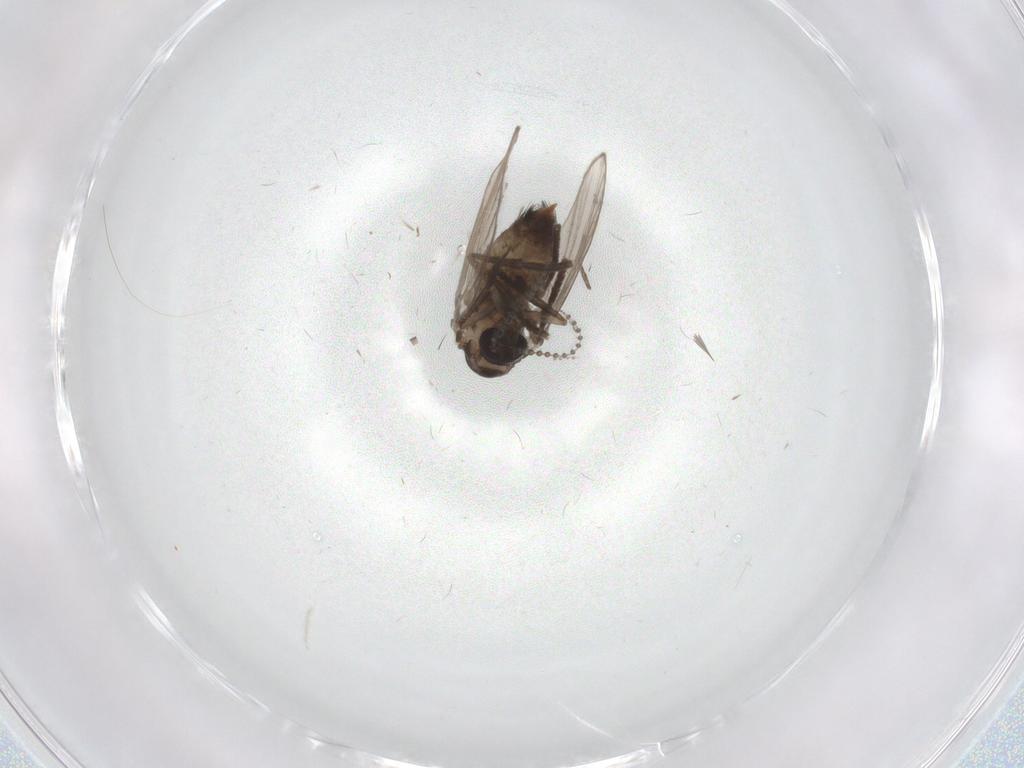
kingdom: Animalia
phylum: Arthropoda
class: Insecta
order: Diptera
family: Psychodidae
